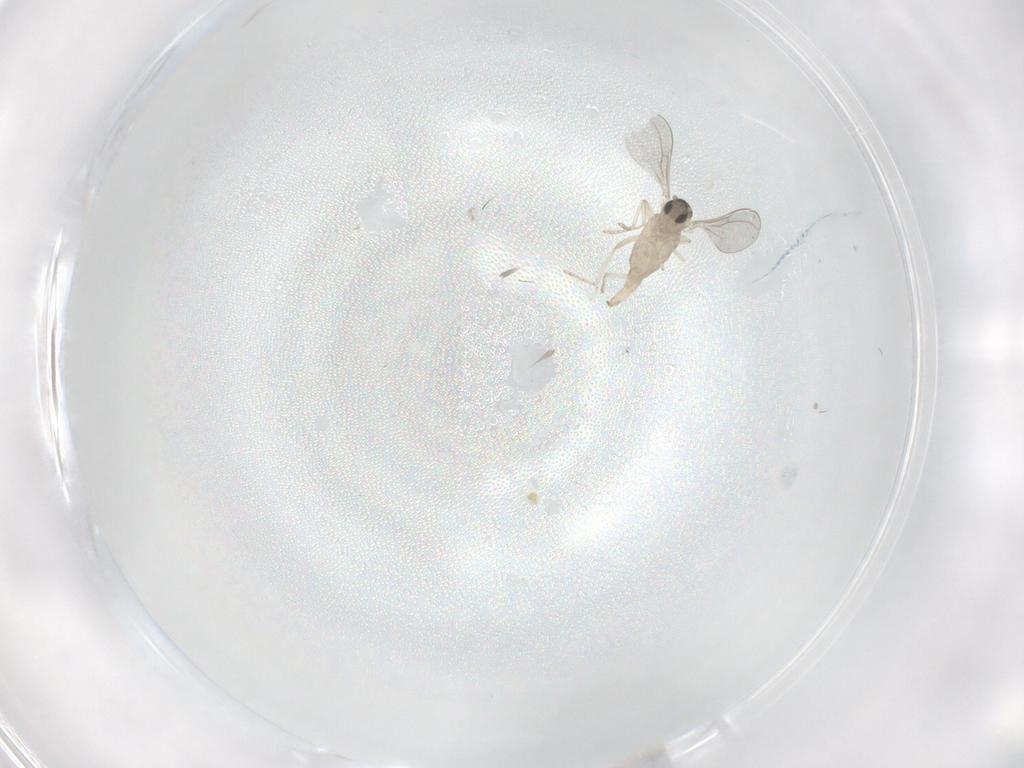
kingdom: Animalia
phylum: Arthropoda
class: Insecta
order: Diptera
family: Cecidomyiidae
